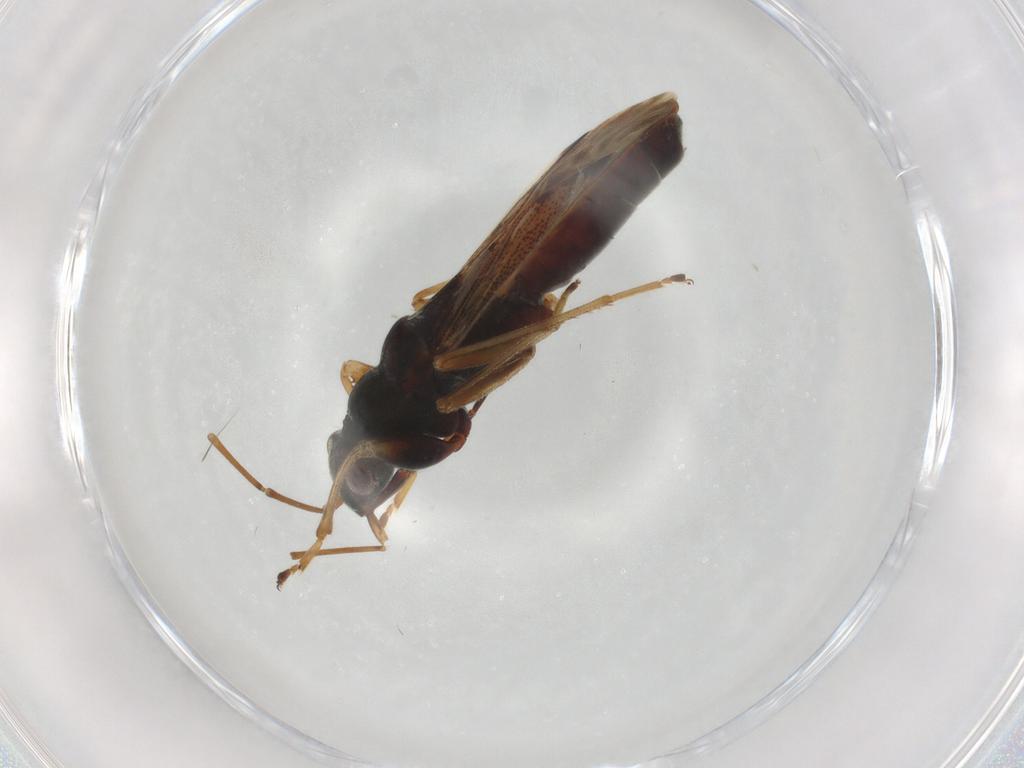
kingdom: Animalia
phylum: Arthropoda
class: Insecta
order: Hemiptera
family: Rhyparochromidae
